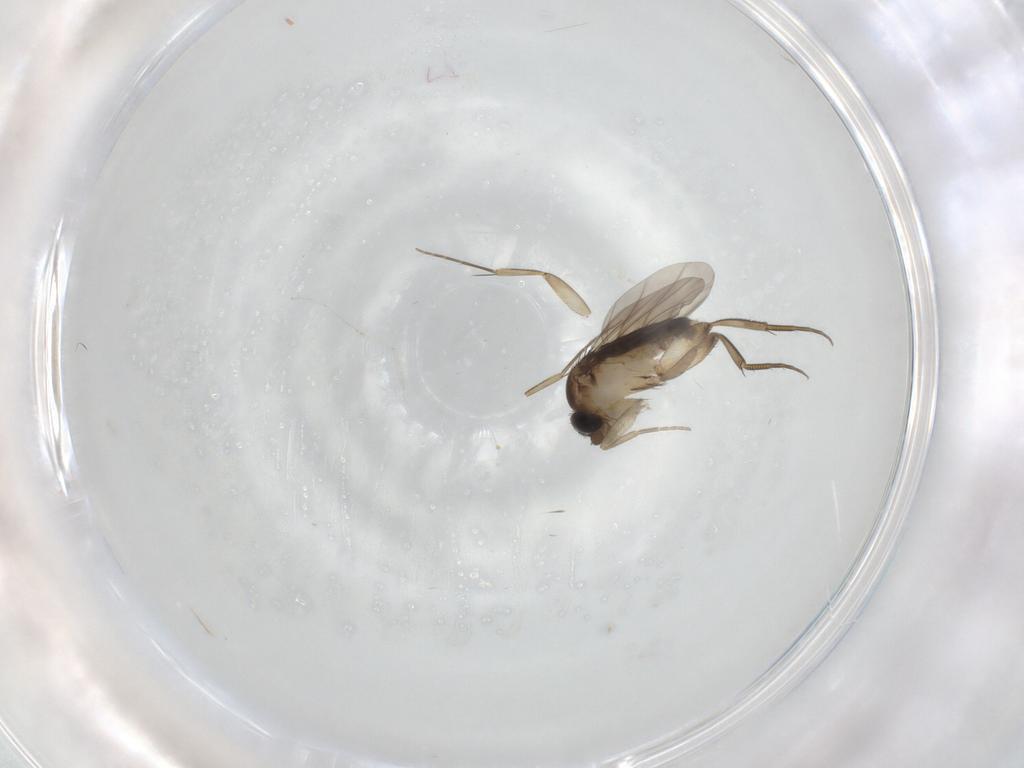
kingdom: Animalia
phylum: Arthropoda
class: Insecta
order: Diptera
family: Phoridae
